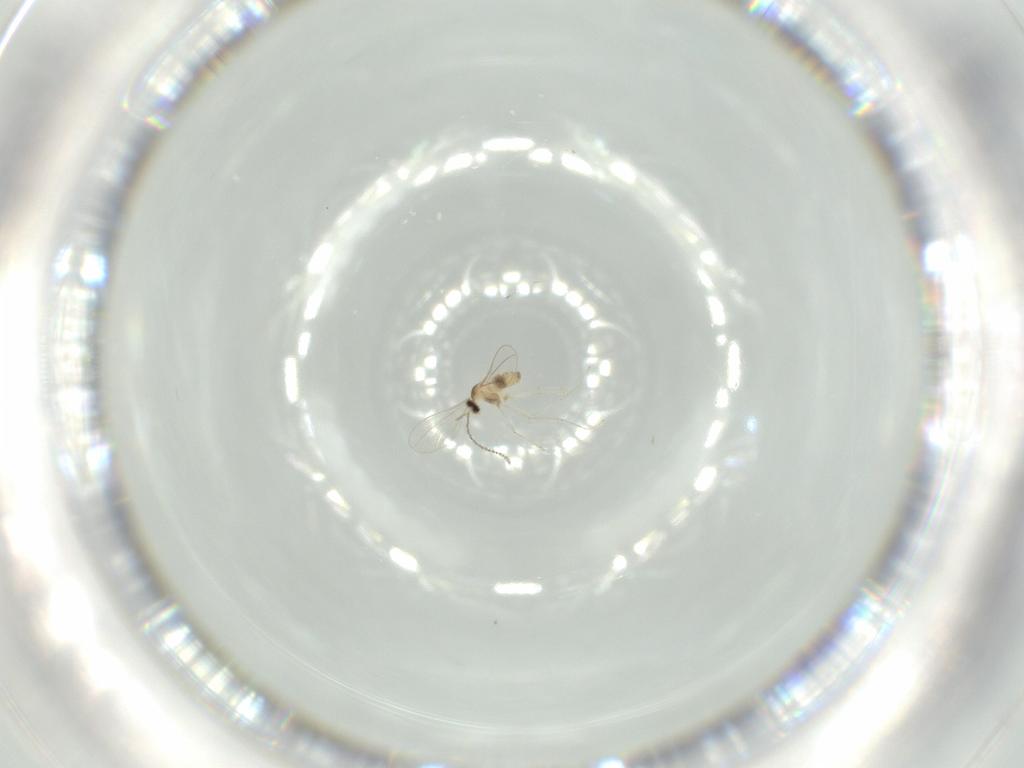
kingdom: Animalia
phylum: Arthropoda
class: Insecta
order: Diptera
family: Cecidomyiidae
